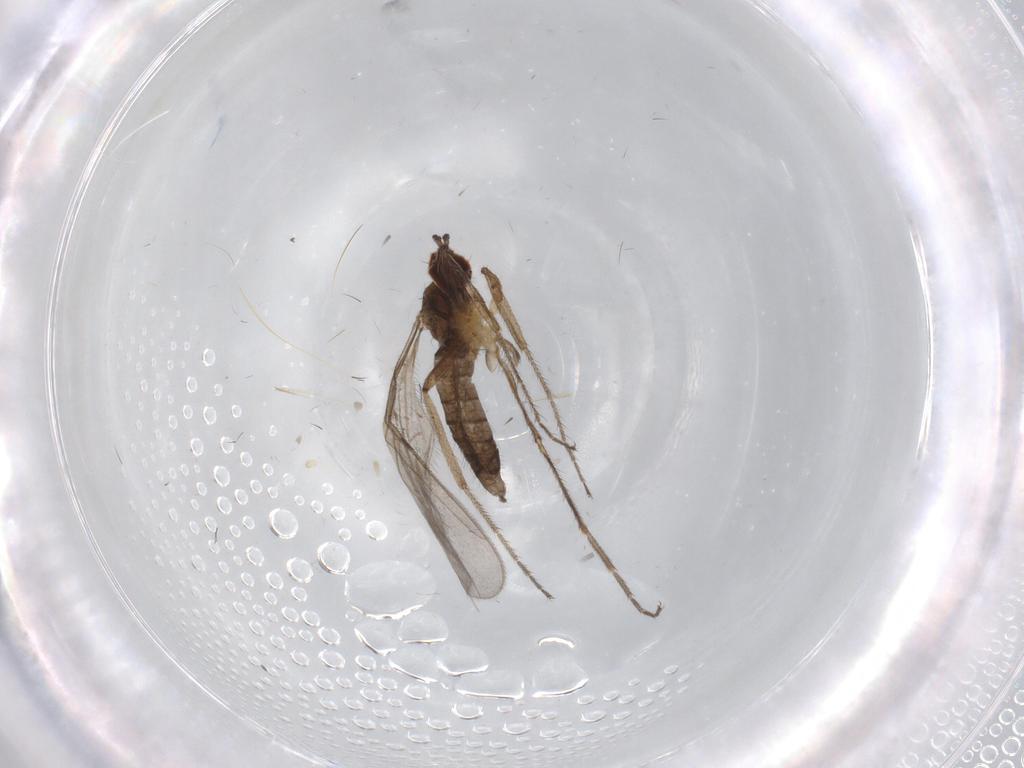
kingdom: Animalia
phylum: Arthropoda
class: Insecta
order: Diptera
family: Hybotidae
